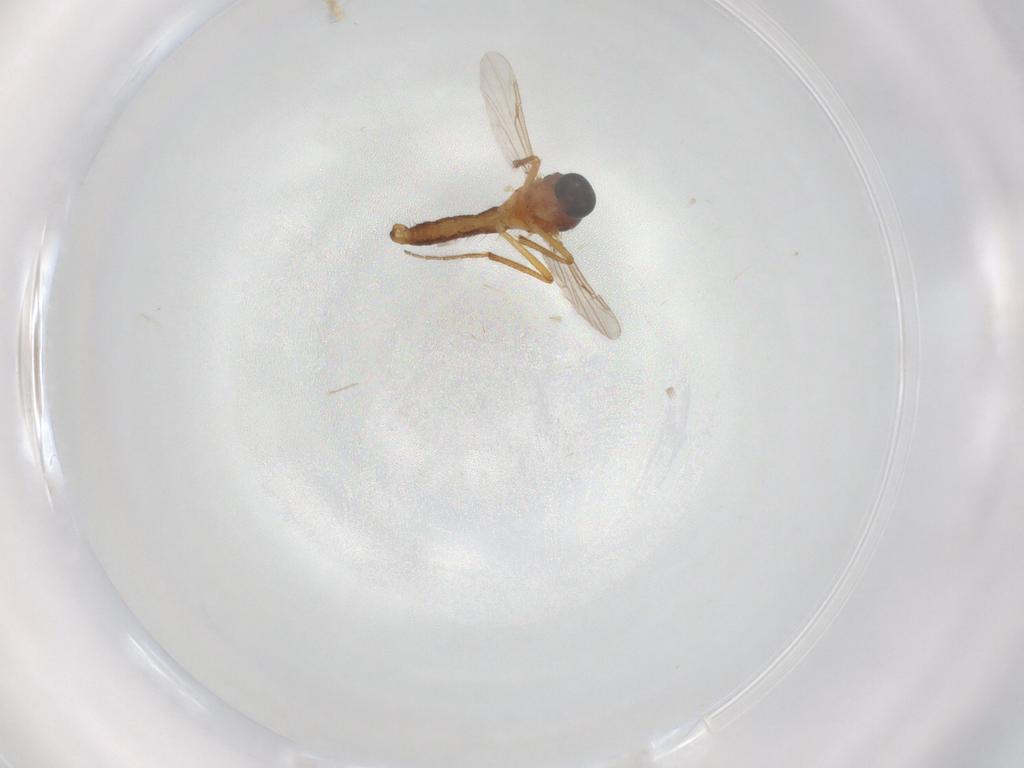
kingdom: Animalia
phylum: Arthropoda
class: Insecta
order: Diptera
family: Ceratopogonidae
